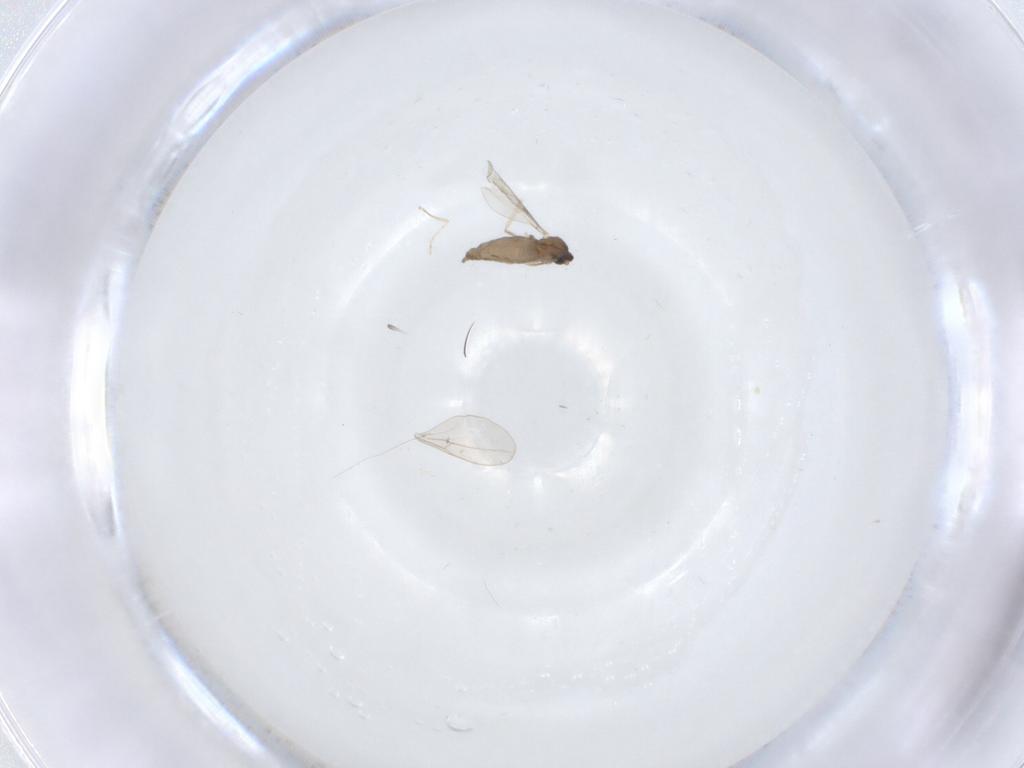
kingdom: Animalia
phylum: Arthropoda
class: Insecta
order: Diptera
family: Cecidomyiidae
